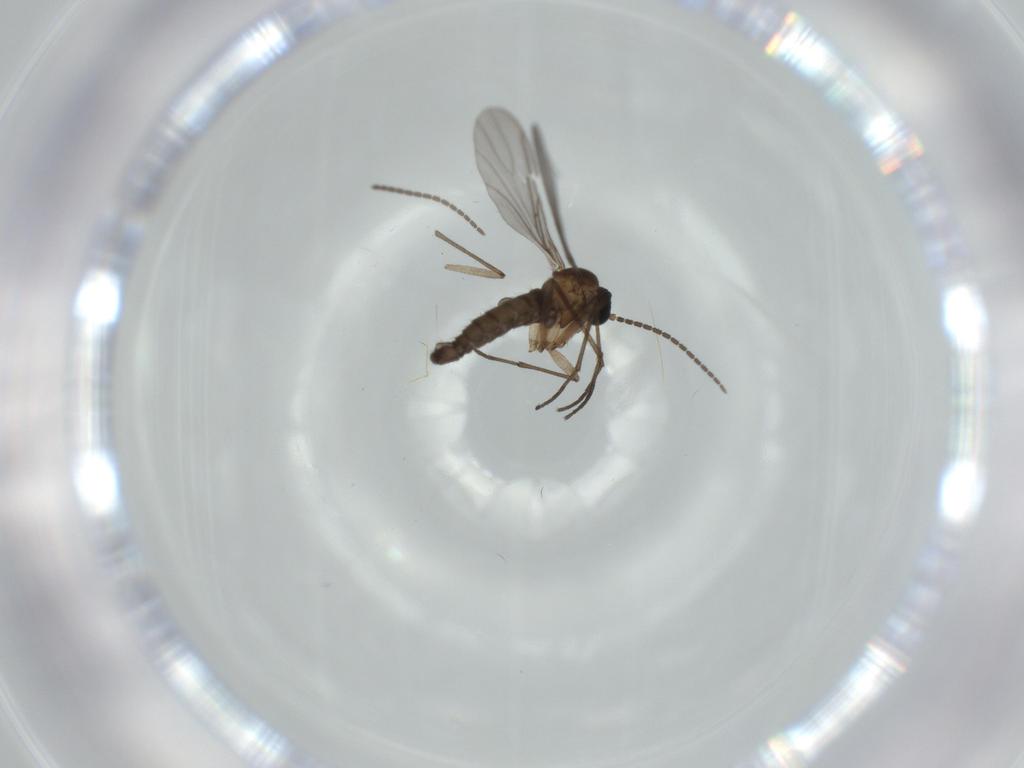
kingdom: Animalia
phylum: Arthropoda
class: Insecta
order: Diptera
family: Sciaridae
